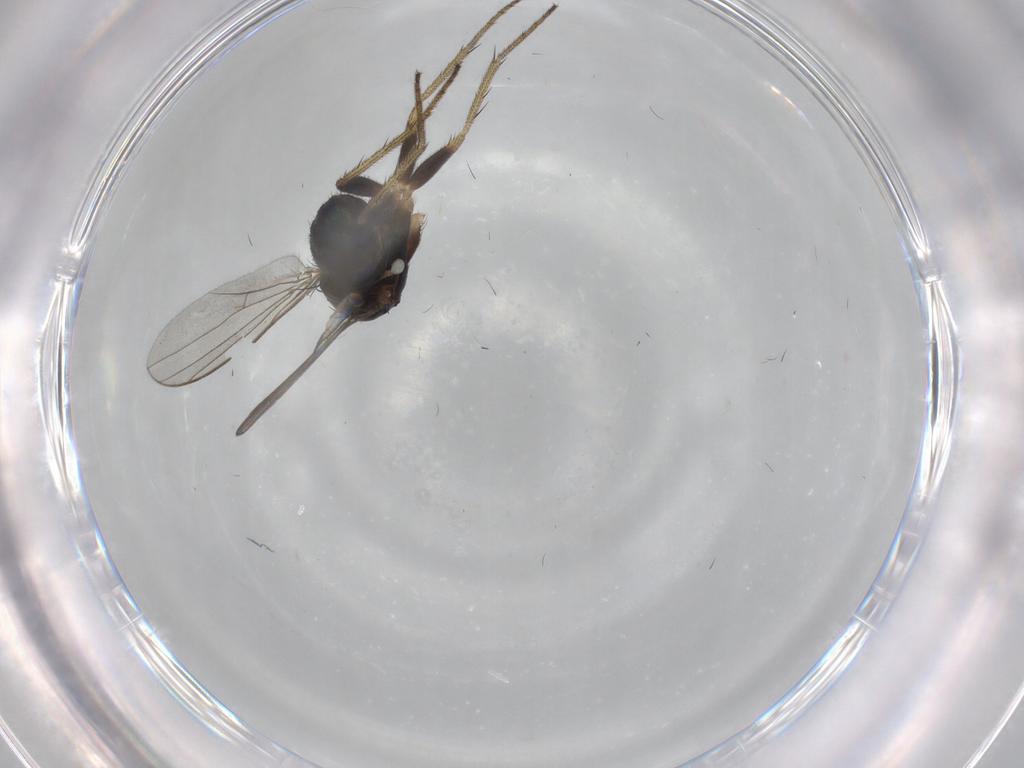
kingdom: Animalia
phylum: Arthropoda
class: Insecta
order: Diptera
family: Dolichopodidae
